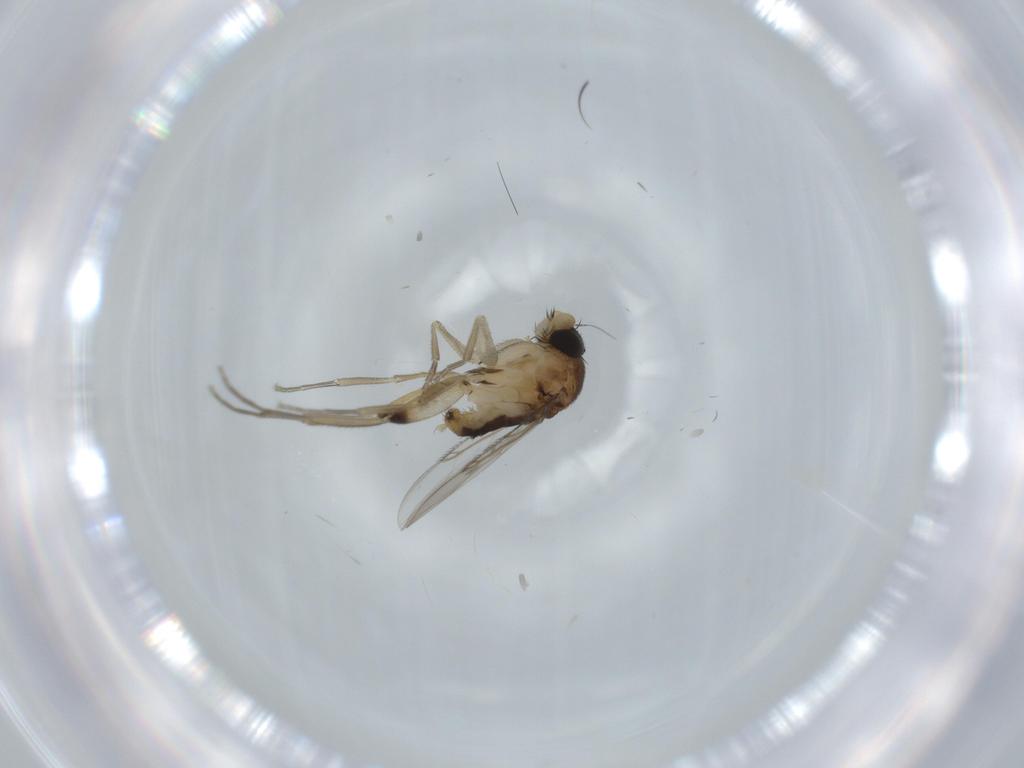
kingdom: Animalia
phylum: Arthropoda
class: Insecta
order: Diptera
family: Phoridae
